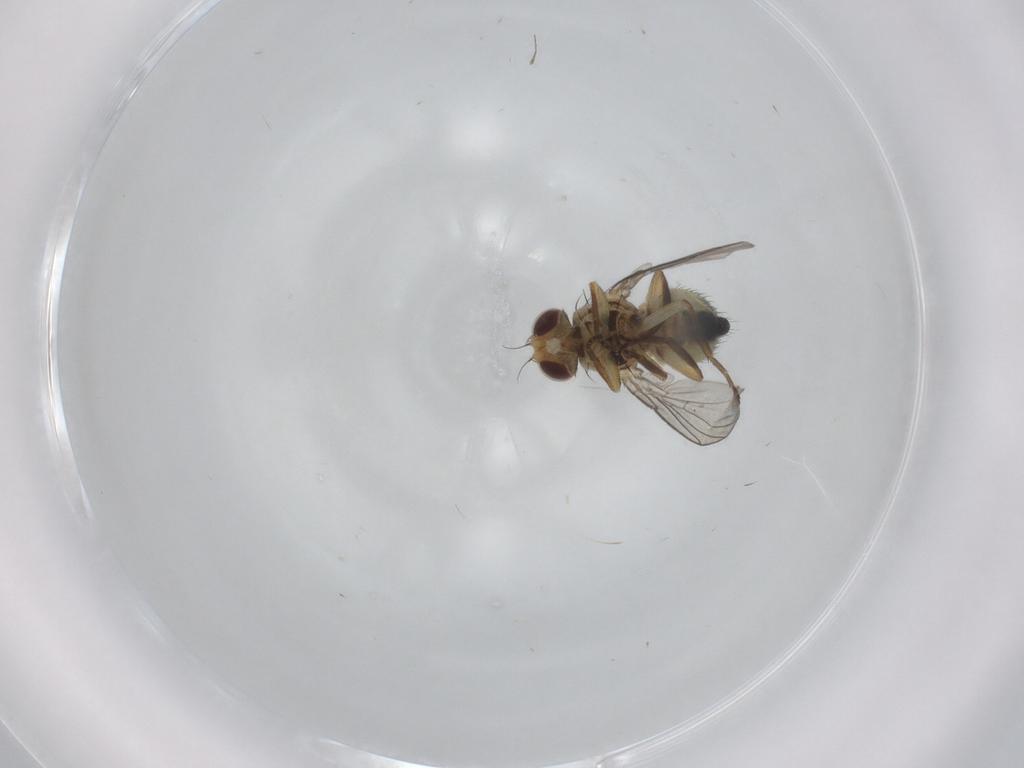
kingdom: Animalia
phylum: Arthropoda
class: Insecta
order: Diptera
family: Agromyzidae
